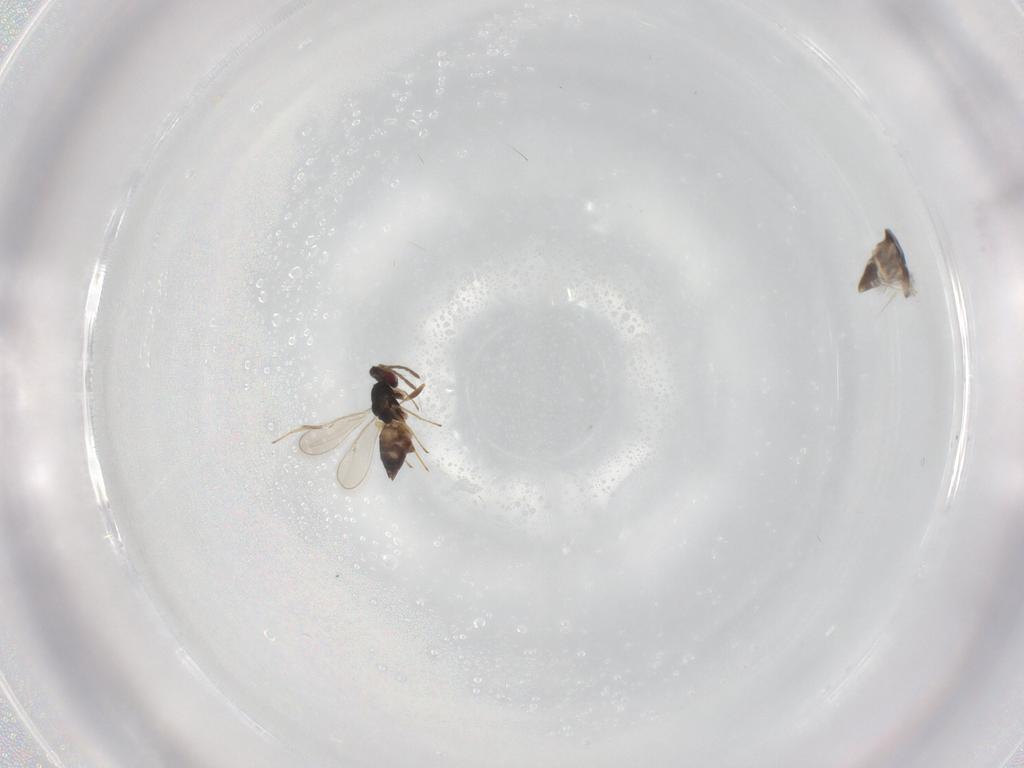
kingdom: Animalia
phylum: Arthropoda
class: Insecta
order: Hymenoptera
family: Eulophidae
